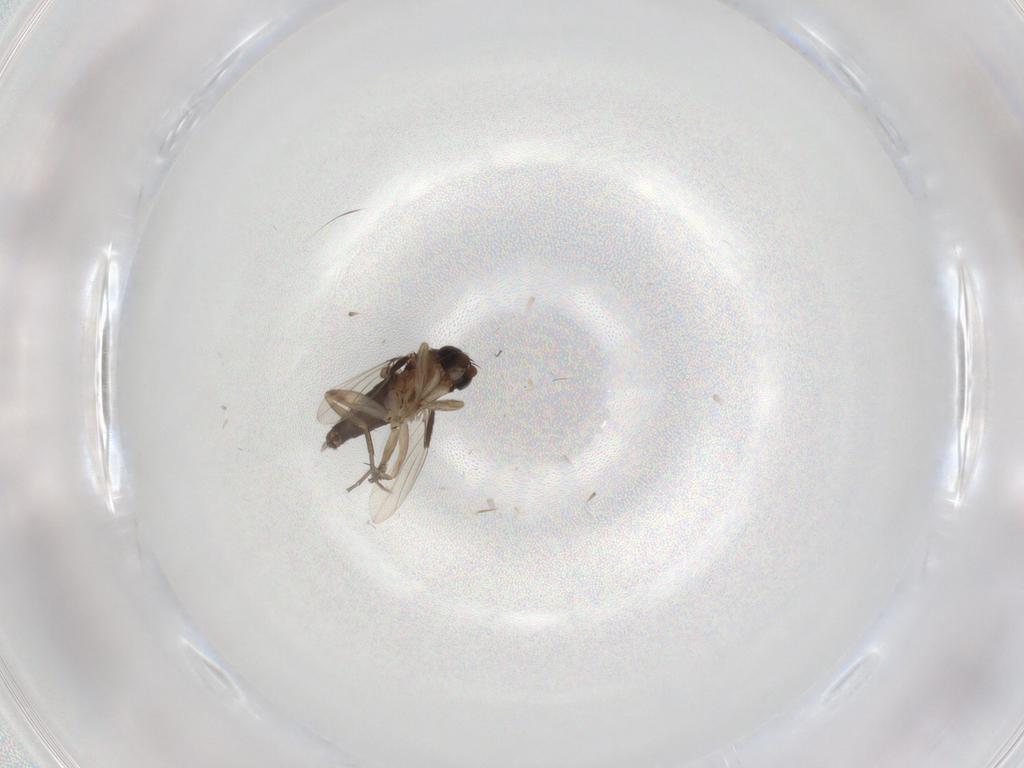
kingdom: Animalia
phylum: Arthropoda
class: Insecta
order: Diptera
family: Phoridae
